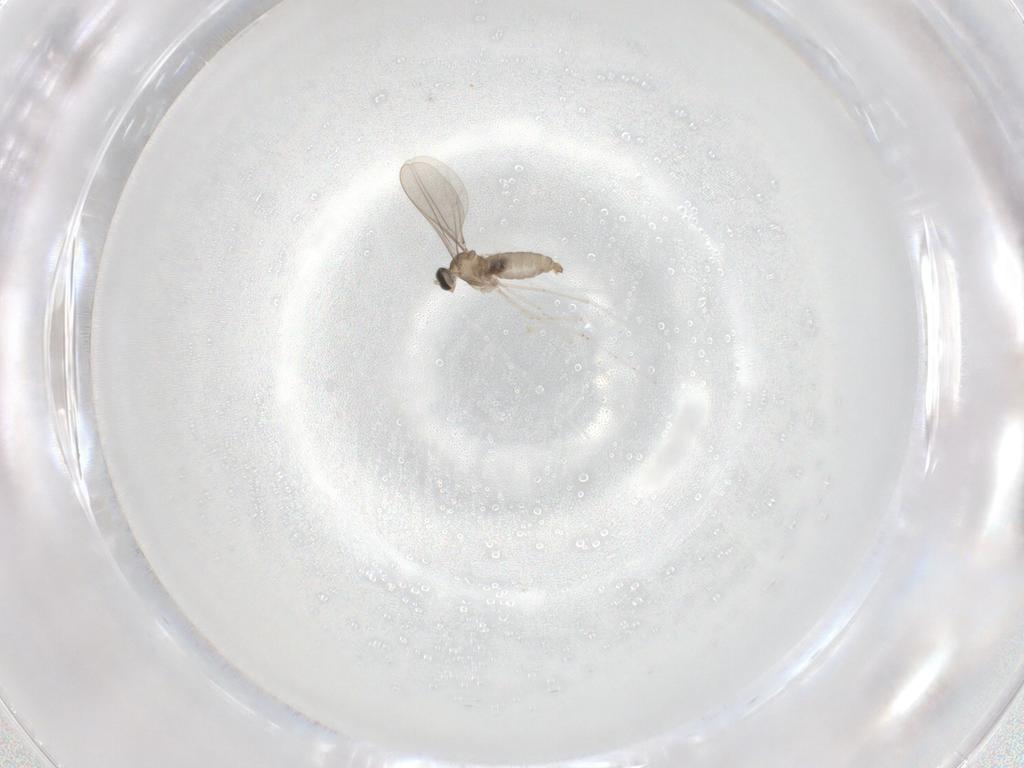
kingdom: Animalia
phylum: Arthropoda
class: Insecta
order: Diptera
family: Cecidomyiidae
